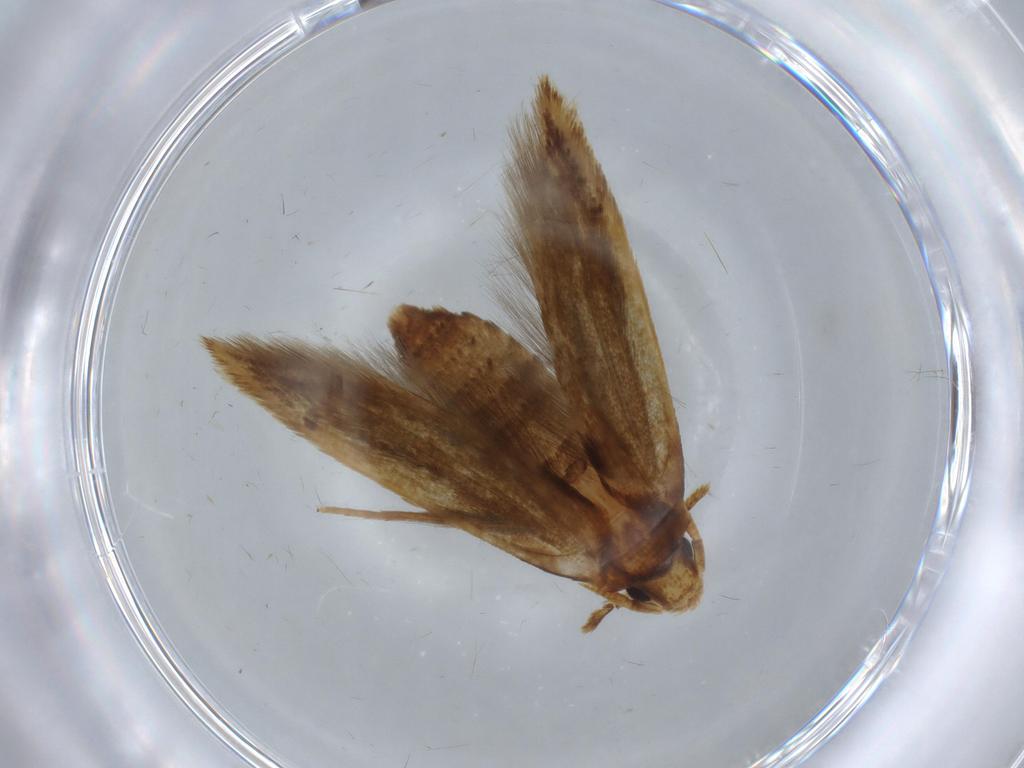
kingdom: Animalia
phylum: Arthropoda
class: Insecta
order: Lepidoptera
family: Tineidae
